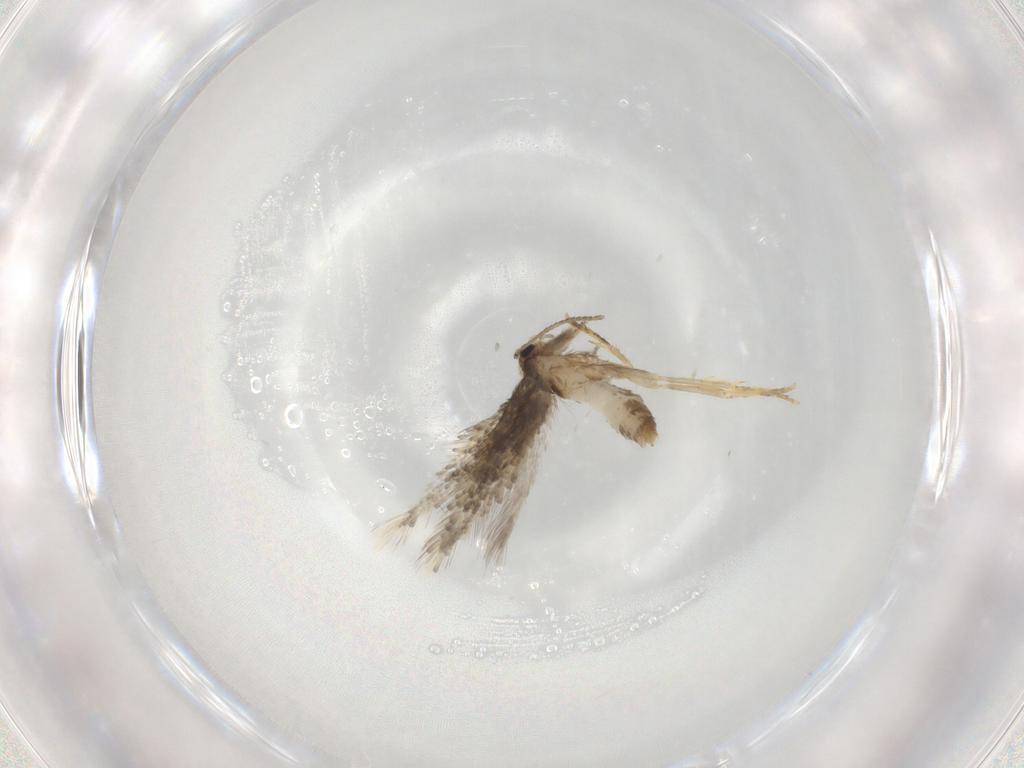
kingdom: Animalia
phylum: Arthropoda
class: Insecta
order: Lepidoptera
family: Nepticulidae
